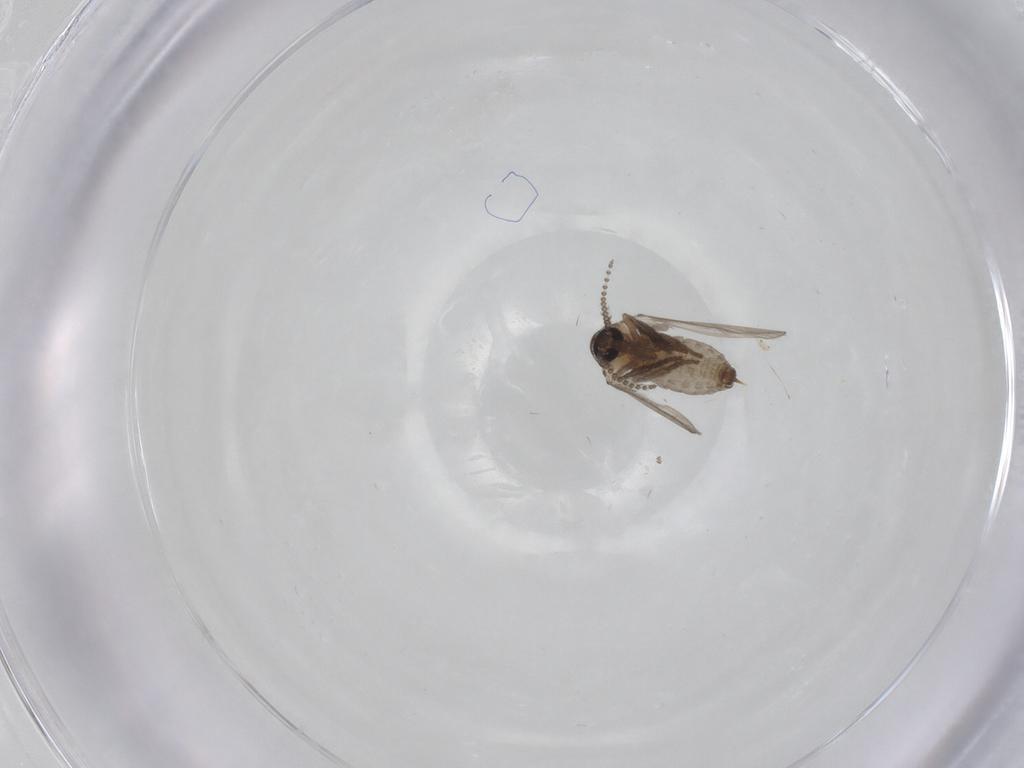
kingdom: Animalia
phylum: Arthropoda
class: Insecta
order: Diptera
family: Psychodidae
